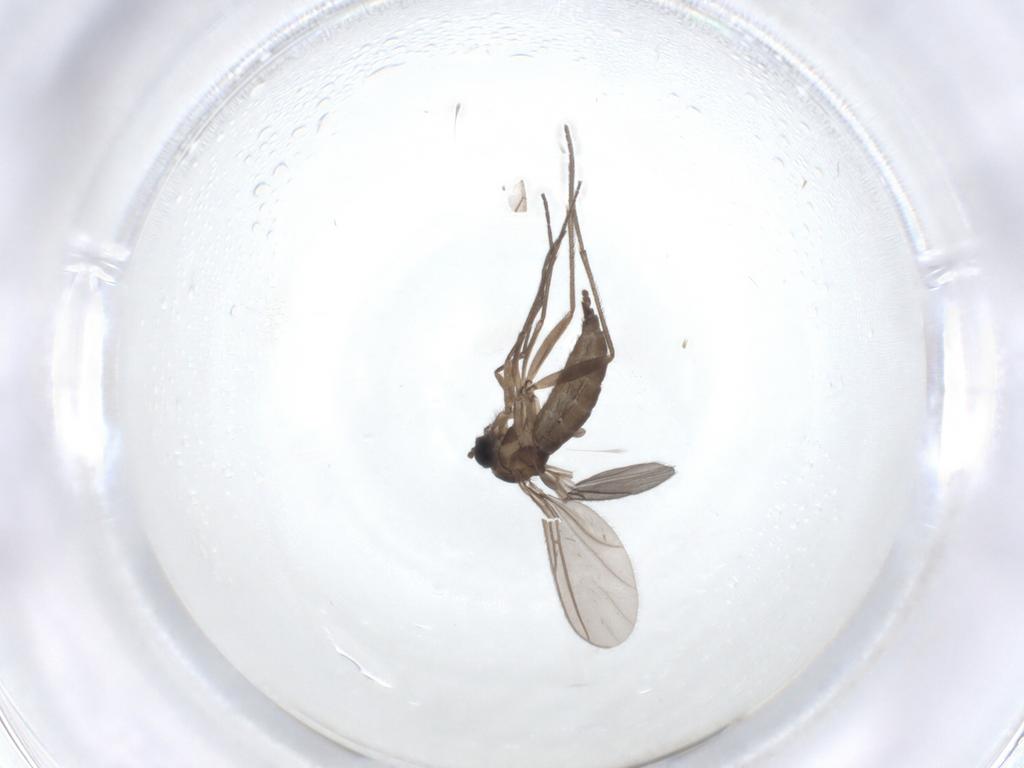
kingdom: Animalia
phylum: Arthropoda
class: Insecta
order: Diptera
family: Sciaridae
